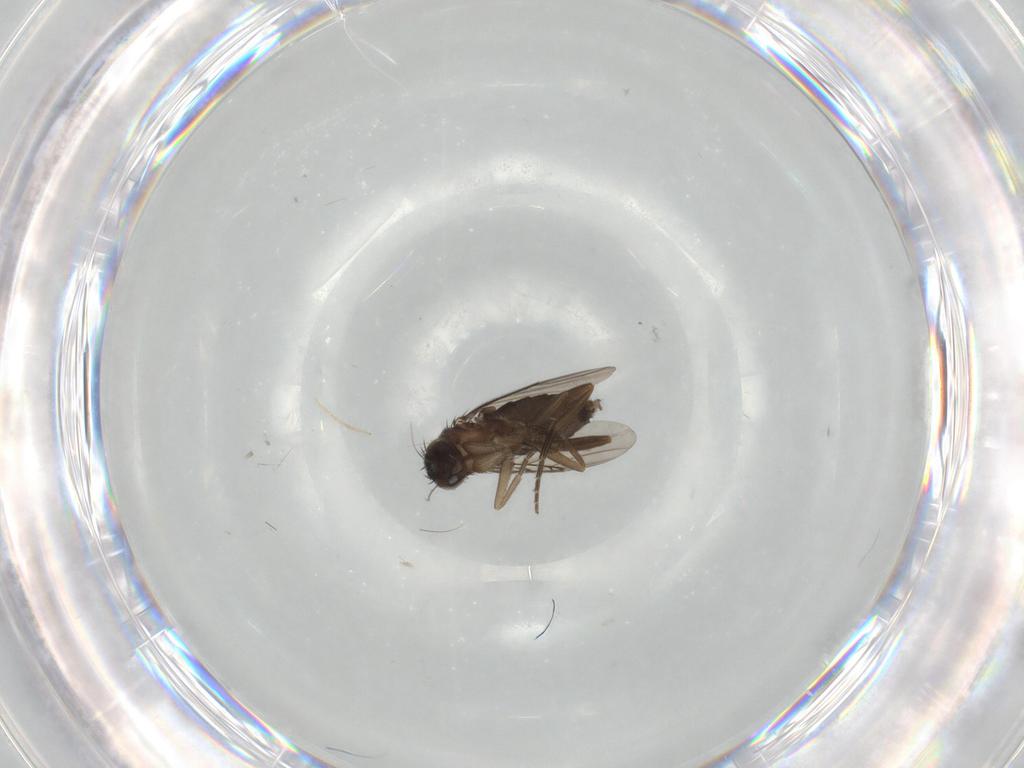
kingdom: Animalia
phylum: Arthropoda
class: Insecta
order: Diptera
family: Phoridae
